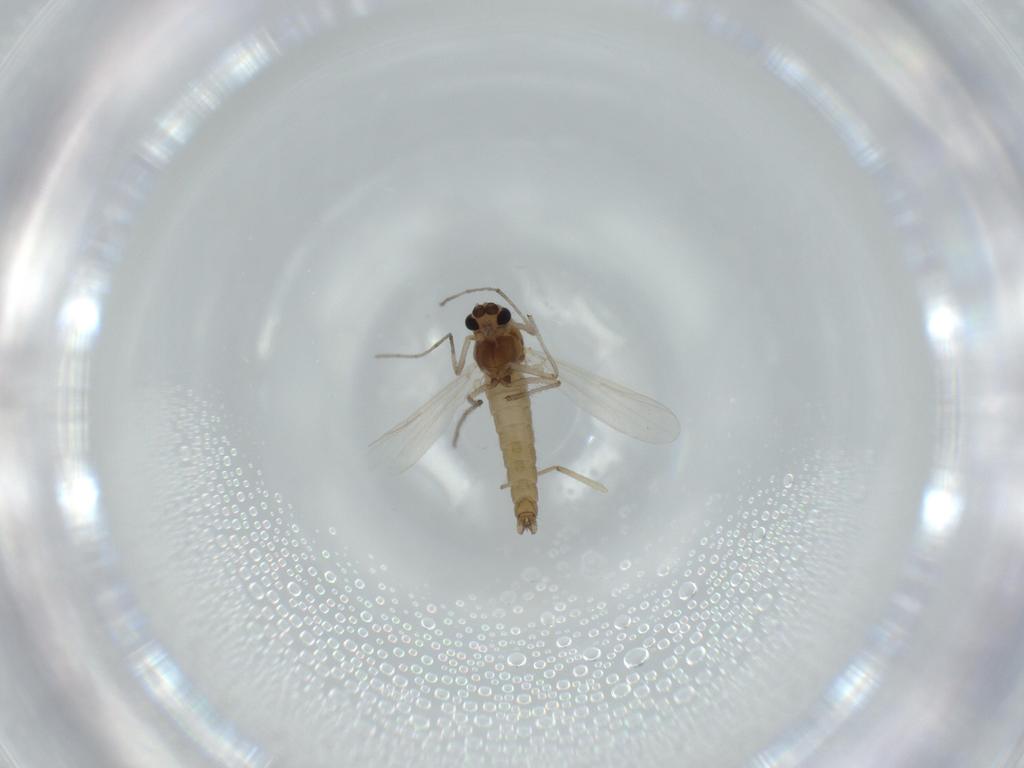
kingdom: Animalia
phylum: Arthropoda
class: Insecta
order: Diptera
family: Chironomidae
